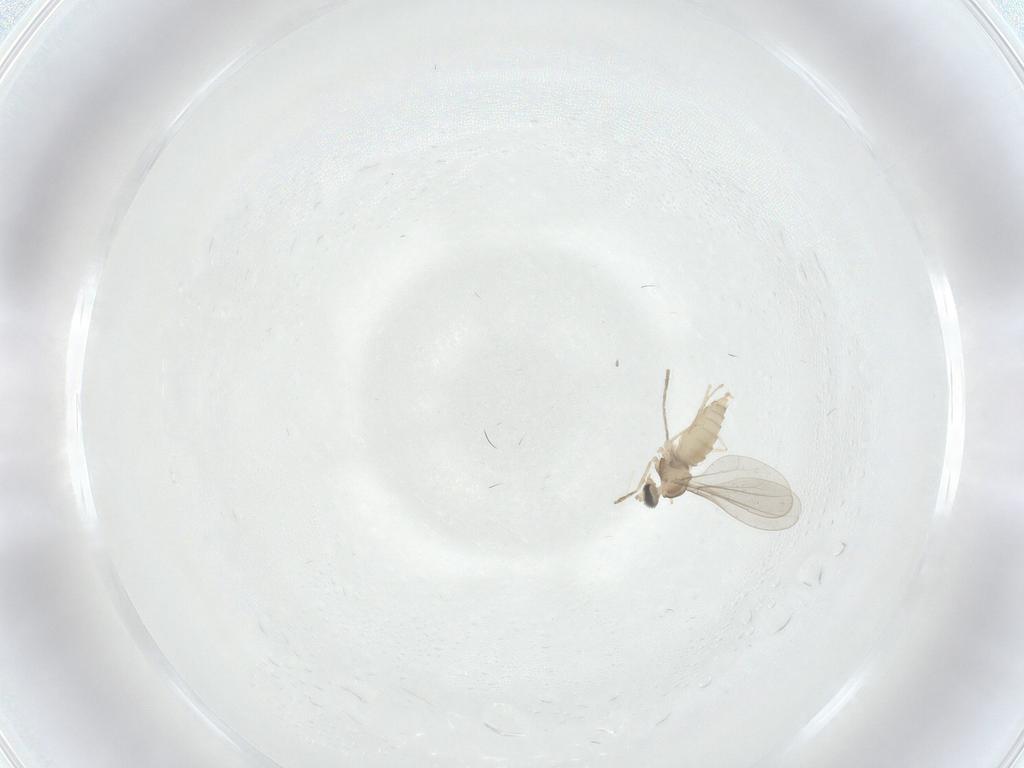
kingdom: Animalia
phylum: Arthropoda
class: Insecta
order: Diptera
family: Cecidomyiidae
